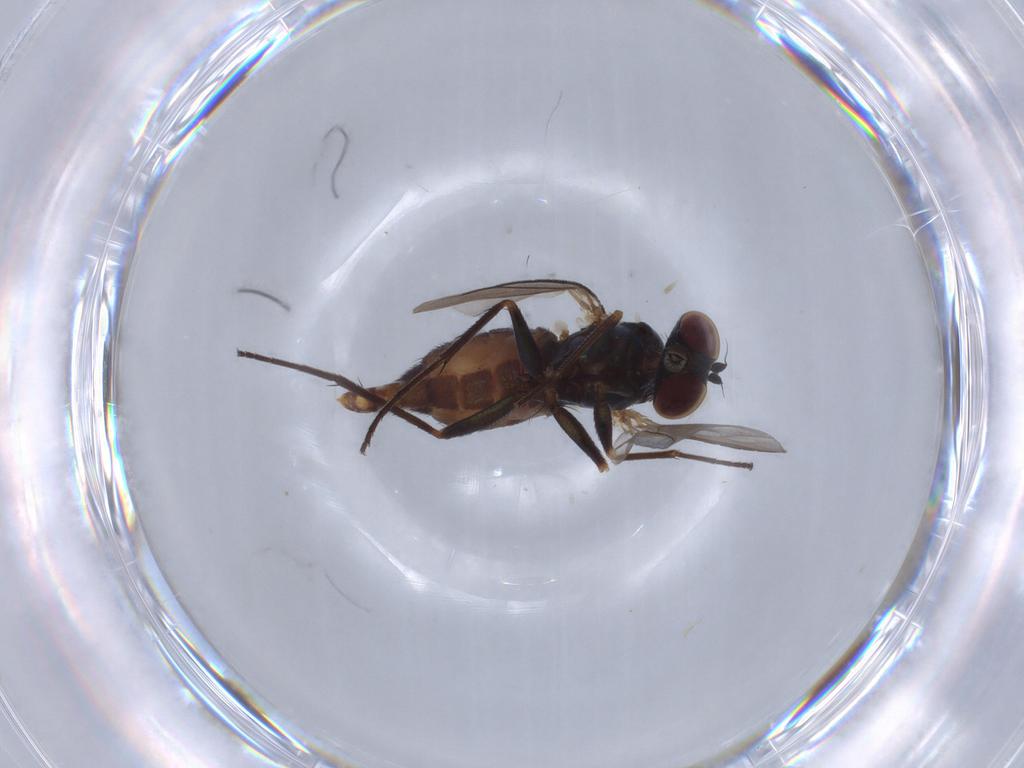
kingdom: Animalia
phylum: Arthropoda
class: Insecta
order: Diptera
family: Dolichopodidae
